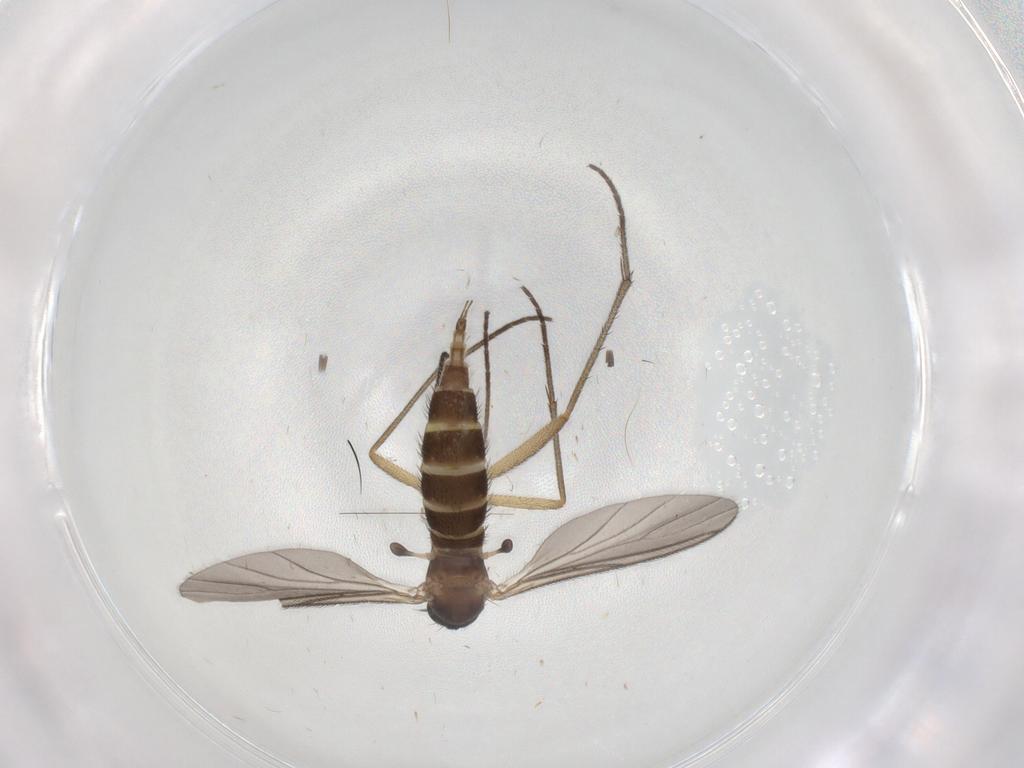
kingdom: Animalia
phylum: Arthropoda
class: Insecta
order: Diptera
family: Sciaridae
